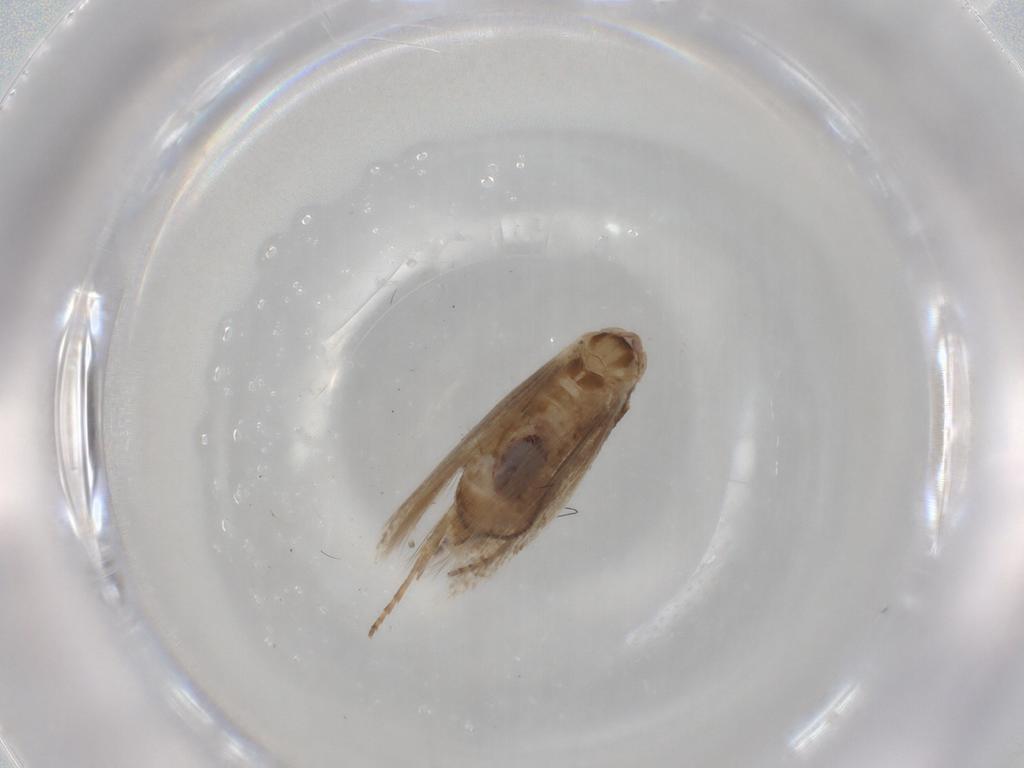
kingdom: Animalia
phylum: Arthropoda
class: Insecta
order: Lepidoptera
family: Bucculatricidae
